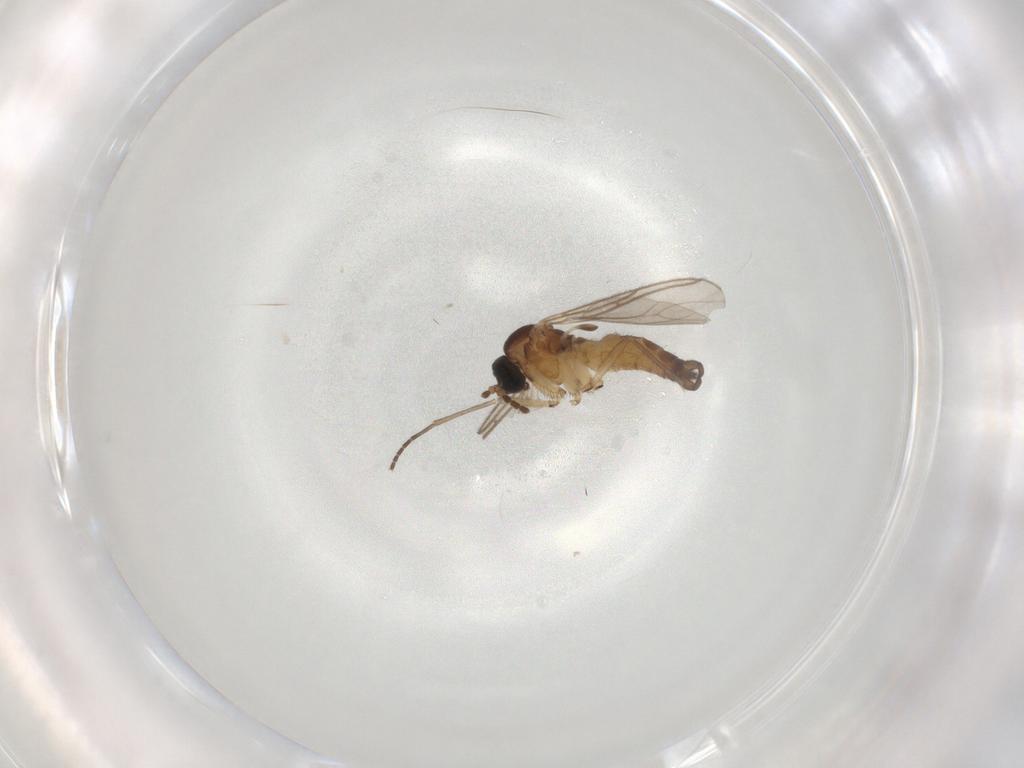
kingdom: Animalia
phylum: Arthropoda
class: Insecta
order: Diptera
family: Sciaridae
